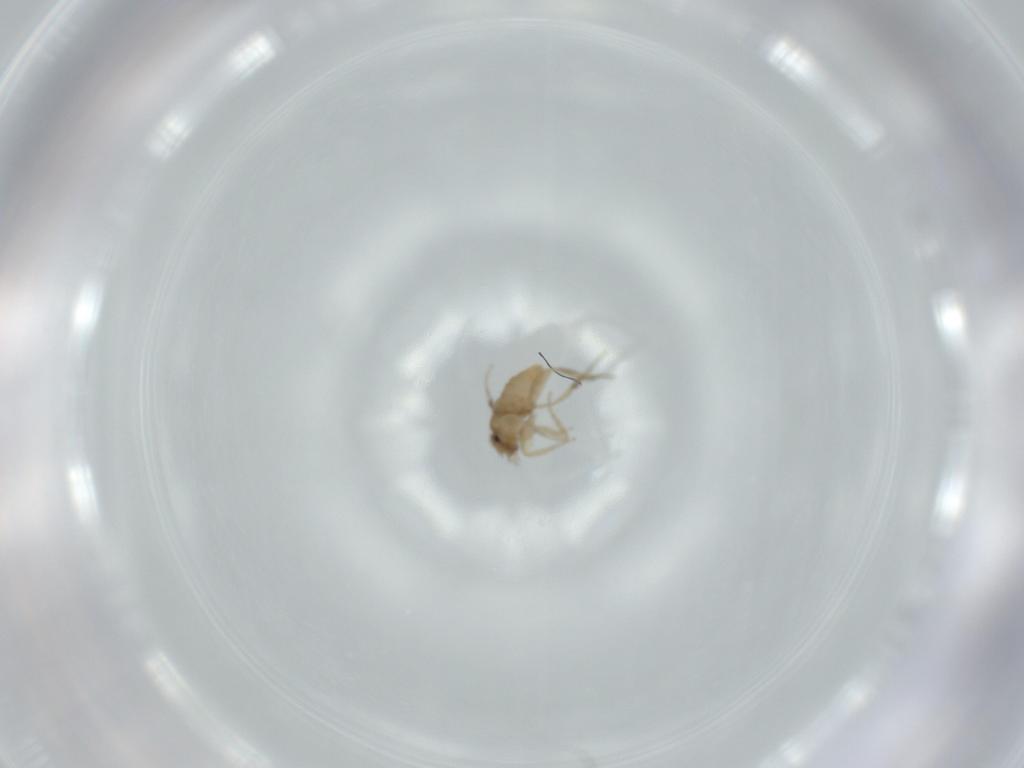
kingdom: Animalia
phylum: Arthropoda
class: Insecta
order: Diptera
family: Phoridae
